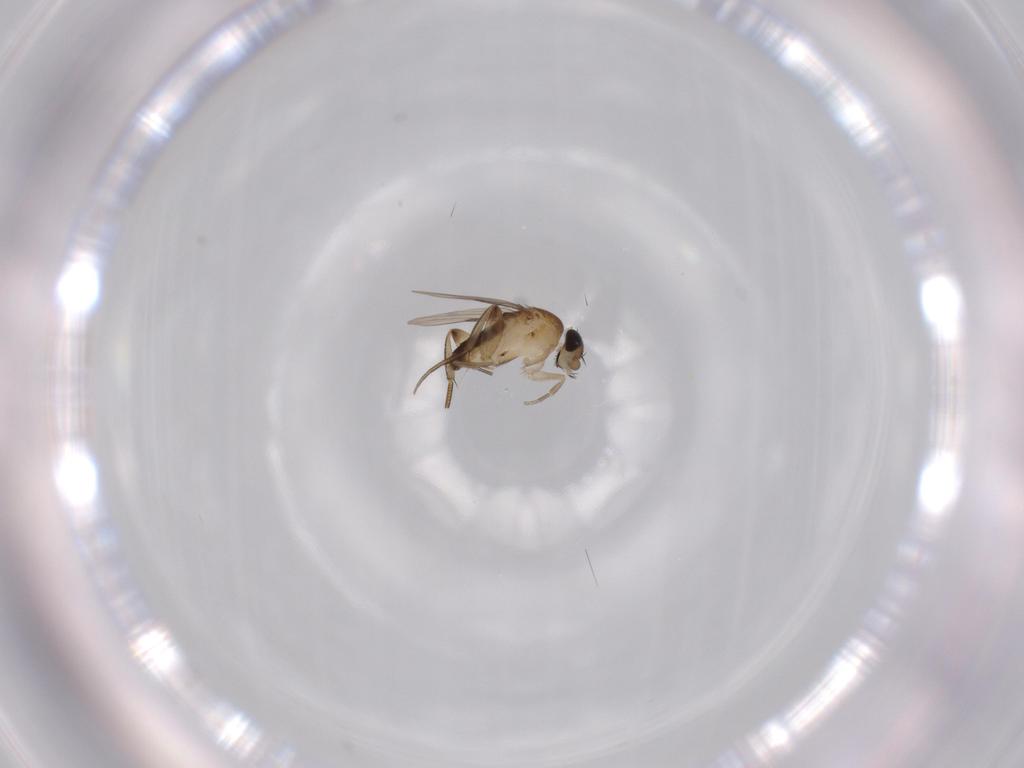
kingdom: Animalia
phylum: Arthropoda
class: Insecta
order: Diptera
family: Phoridae
